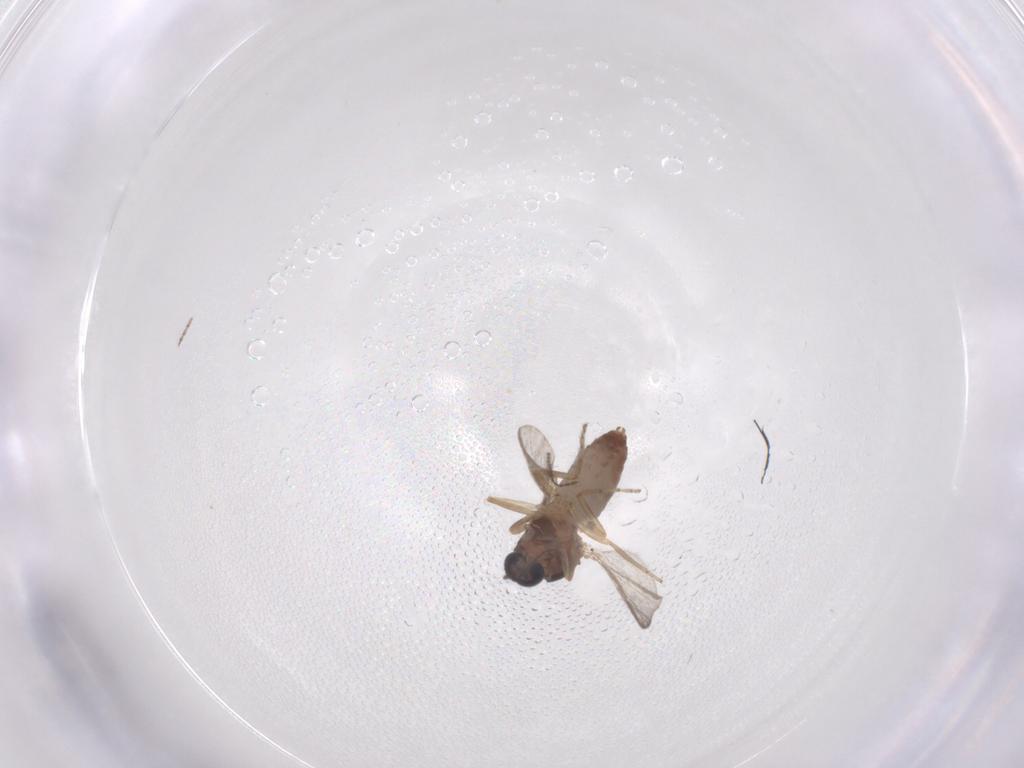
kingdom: Animalia
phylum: Arthropoda
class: Insecta
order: Diptera
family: Ceratopogonidae
